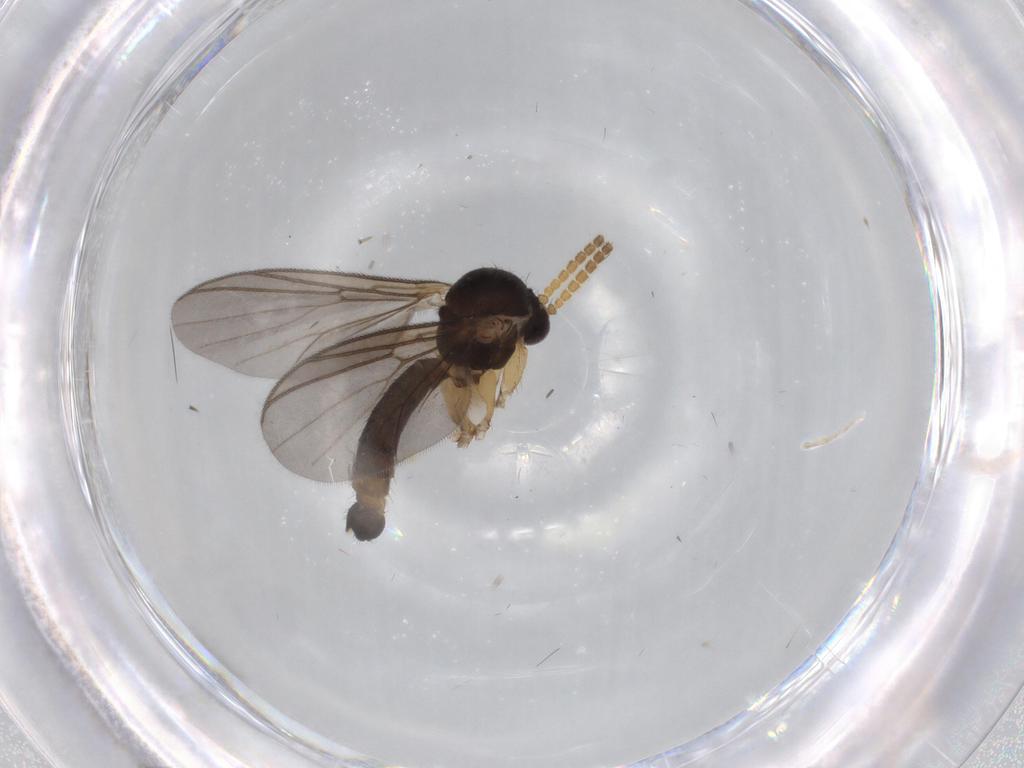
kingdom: Animalia
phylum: Arthropoda
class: Insecta
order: Diptera
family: Mycetophilidae
